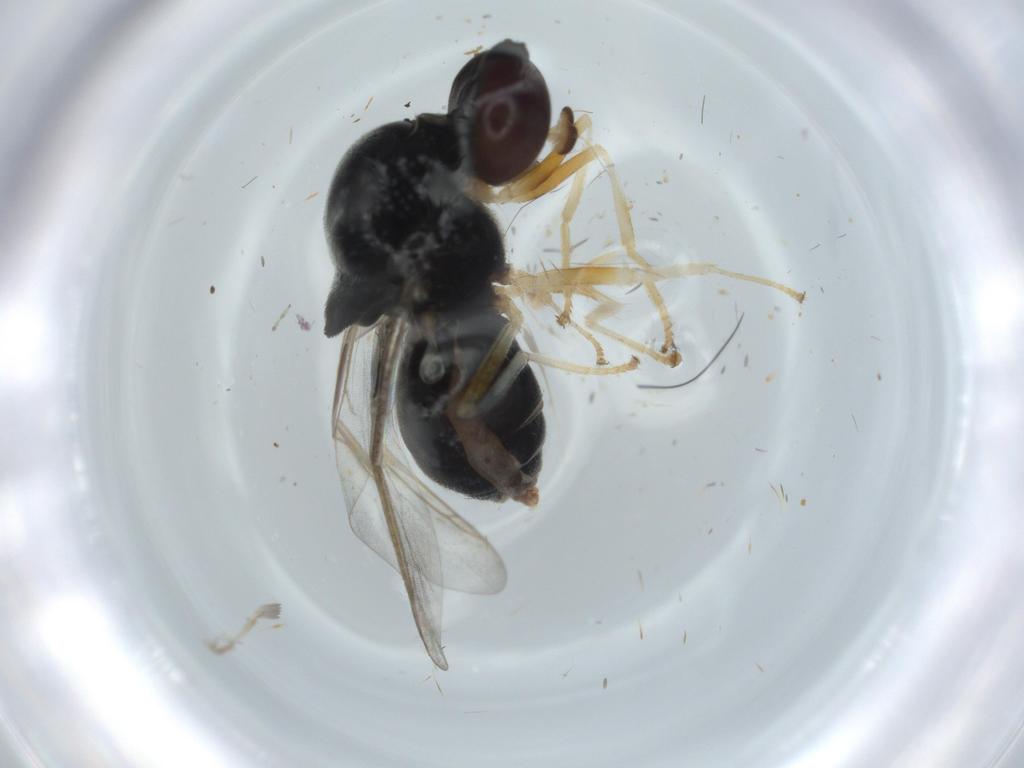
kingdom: Animalia
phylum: Arthropoda
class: Insecta
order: Diptera
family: Stratiomyidae
